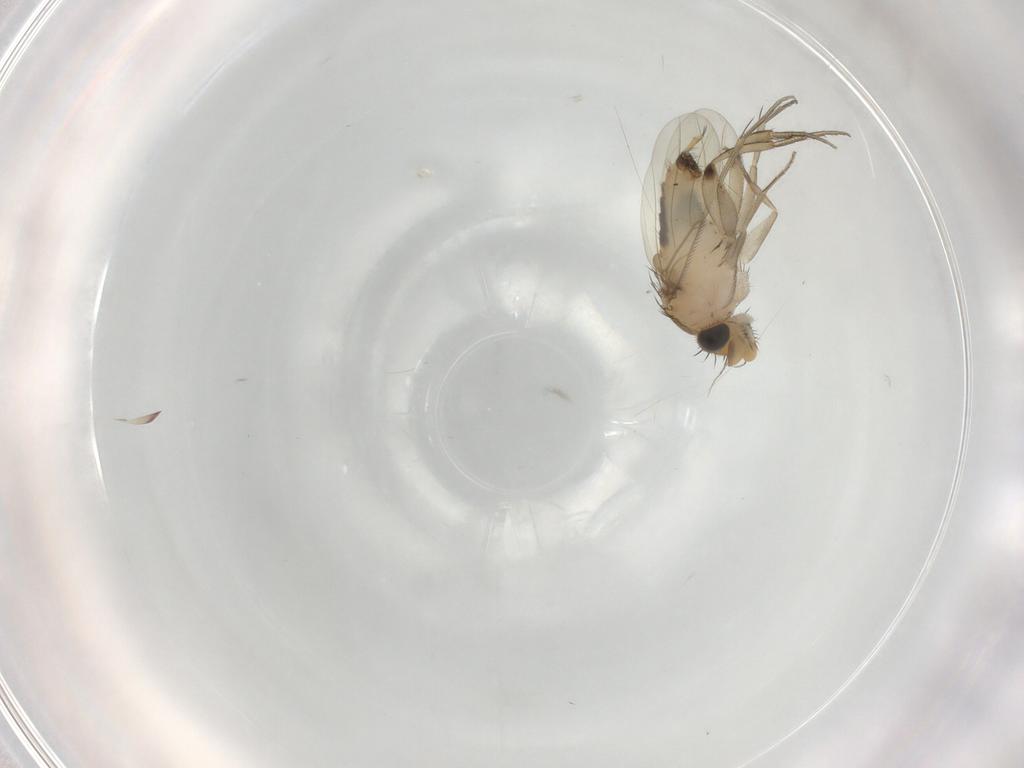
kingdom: Animalia
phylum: Arthropoda
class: Insecta
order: Diptera
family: Phoridae
